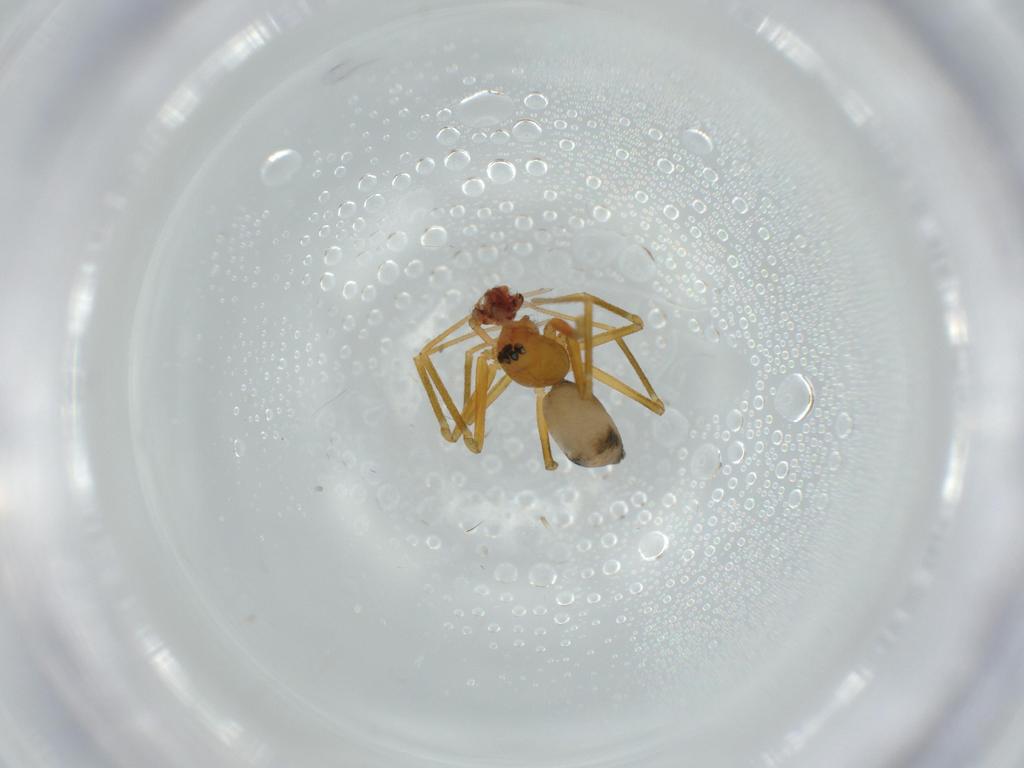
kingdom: Animalia
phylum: Arthropoda
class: Arachnida
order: Araneae
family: Linyphiidae
